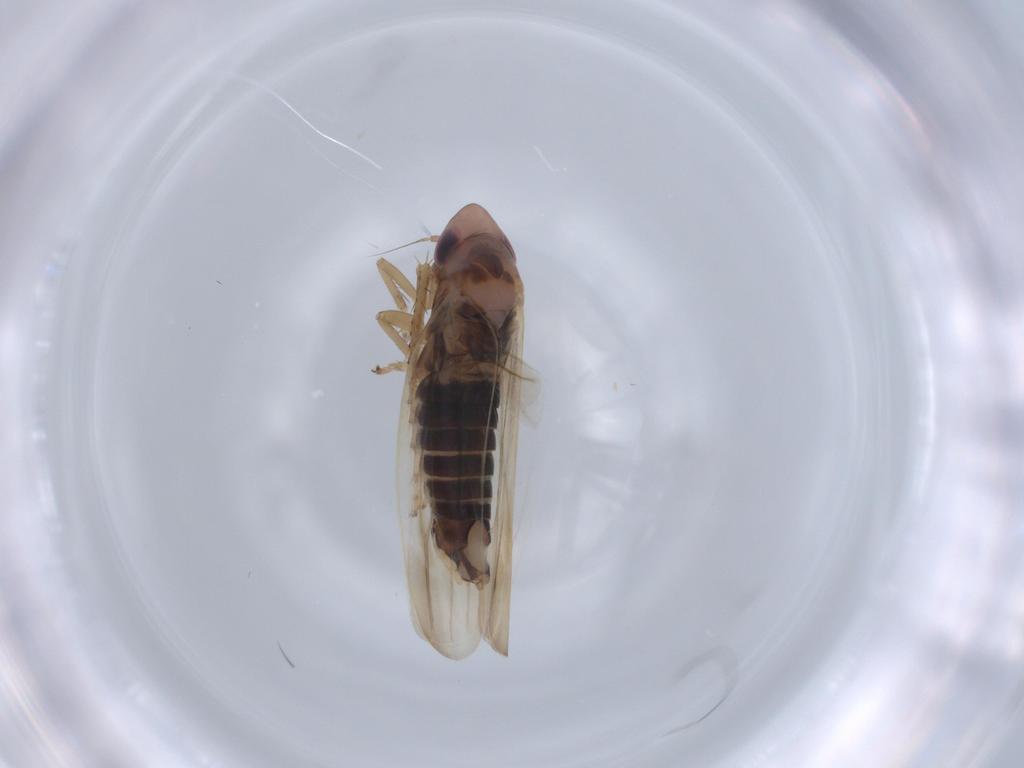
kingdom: Animalia
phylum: Arthropoda
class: Insecta
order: Hemiptera
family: Cicadellidae
